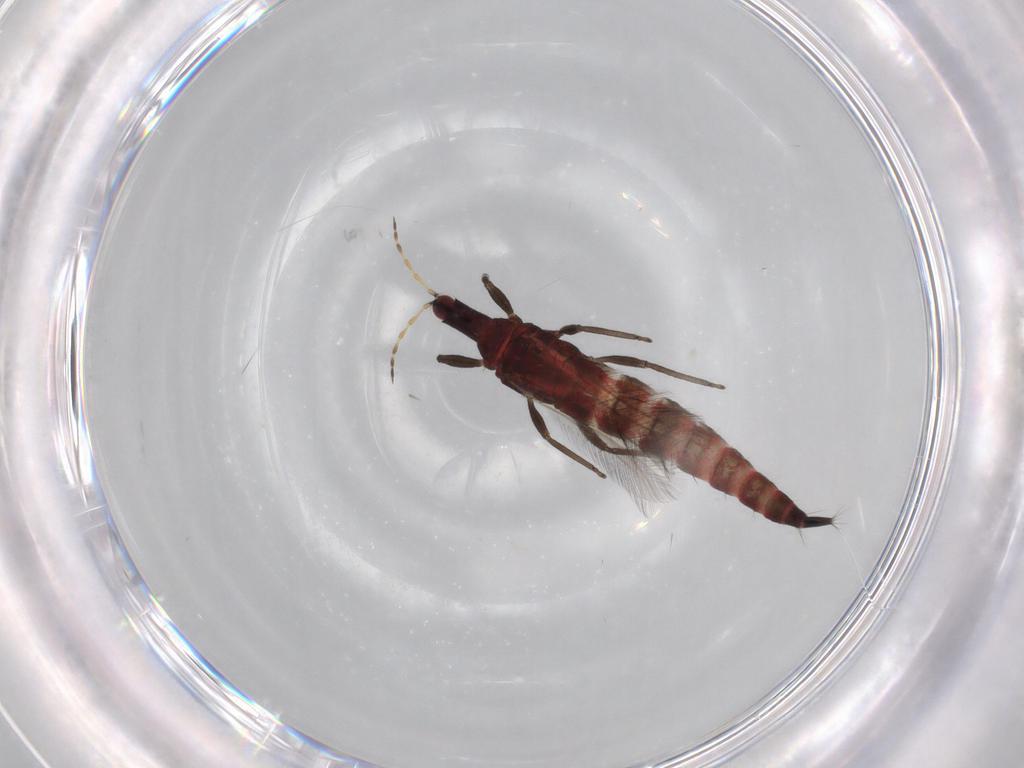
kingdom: Animalia
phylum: Arthropoda
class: Insecta
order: Thysanoptera
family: Phlaeothripidae
